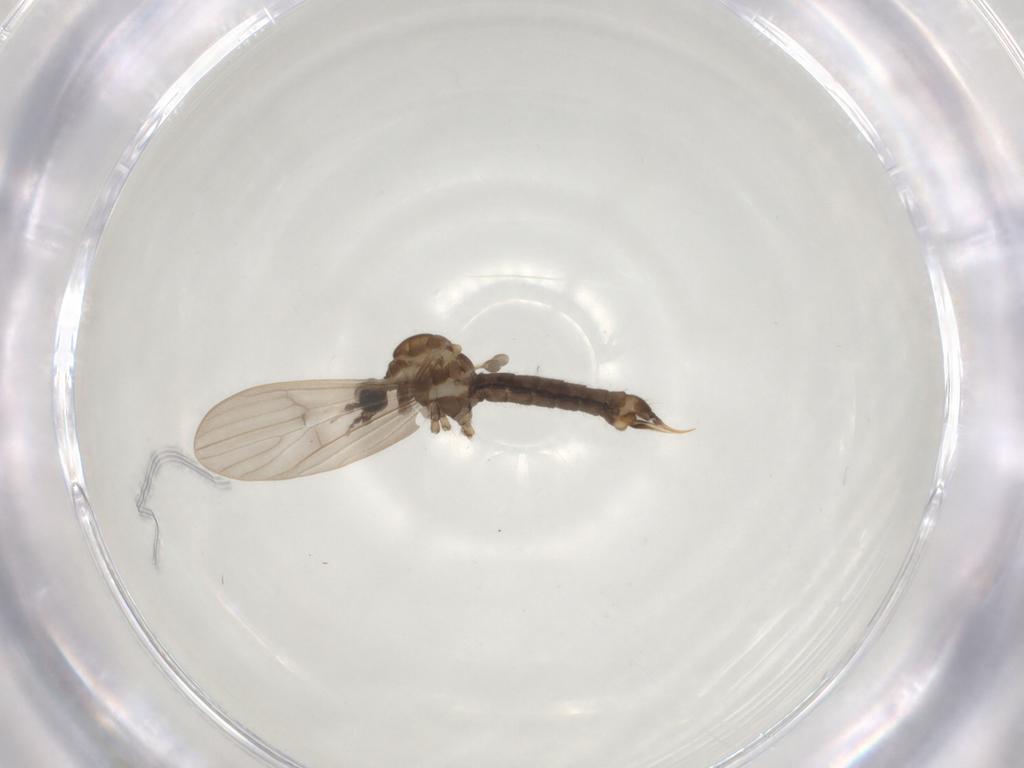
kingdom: Animalia
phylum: Arthropoda
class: Insecta
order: Diptera
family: Limoniidae
